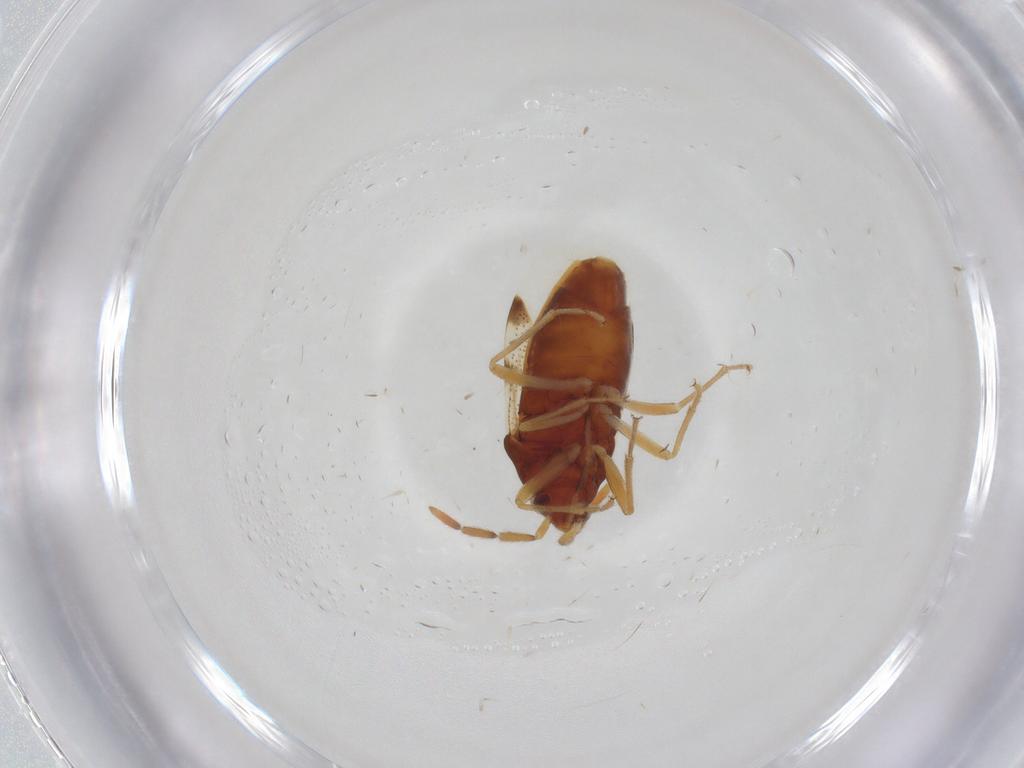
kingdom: Animalia
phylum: Arthropoda
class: Insecta
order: Hemiptera
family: Rhyparochromidae
